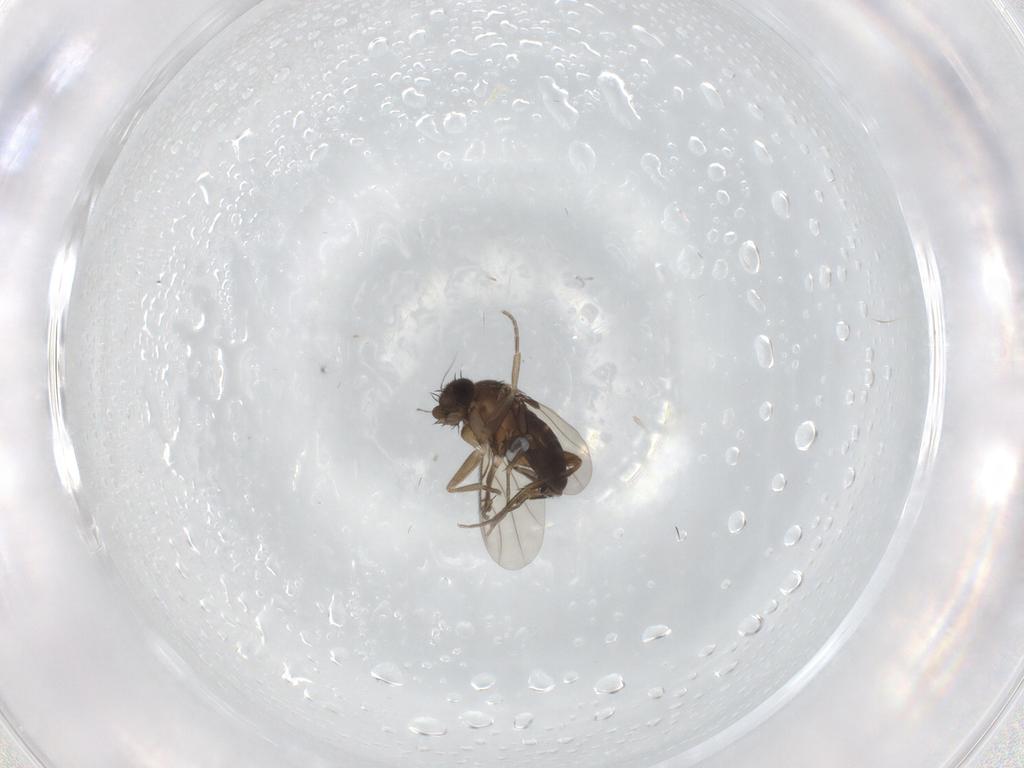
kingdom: Animalia
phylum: Arthropoda
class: Insecta
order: Diptera
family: Phoridae
